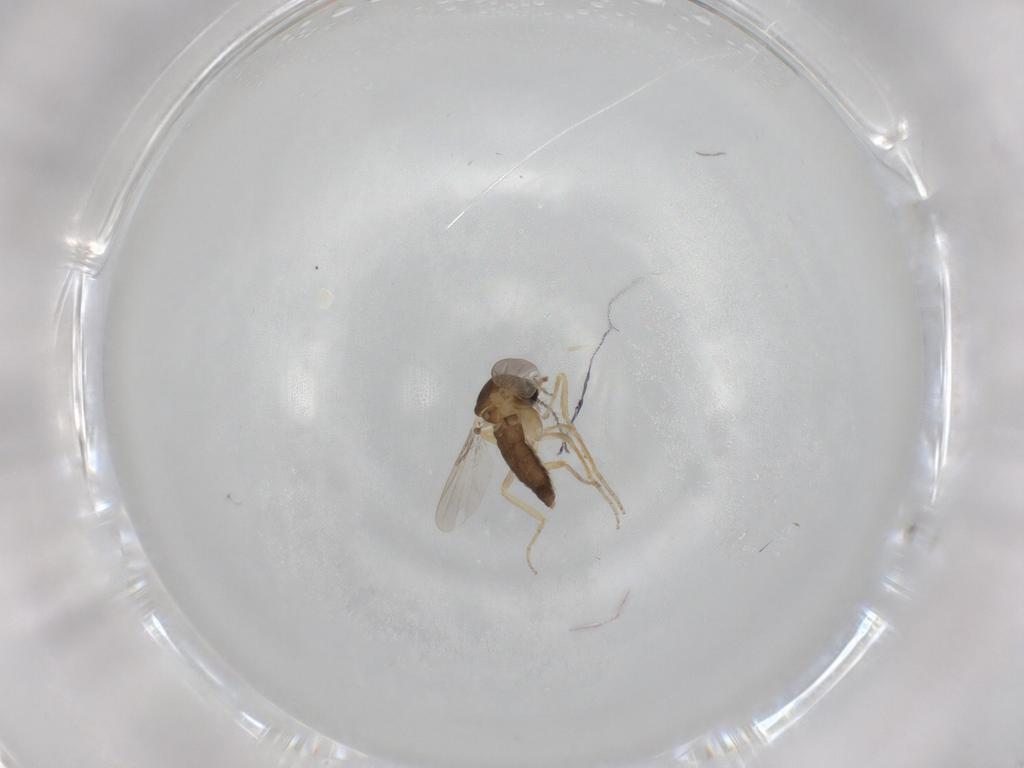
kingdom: Animalia
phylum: Arthropoda
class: Insecta
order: Diptera
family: Ceratopogonidae
